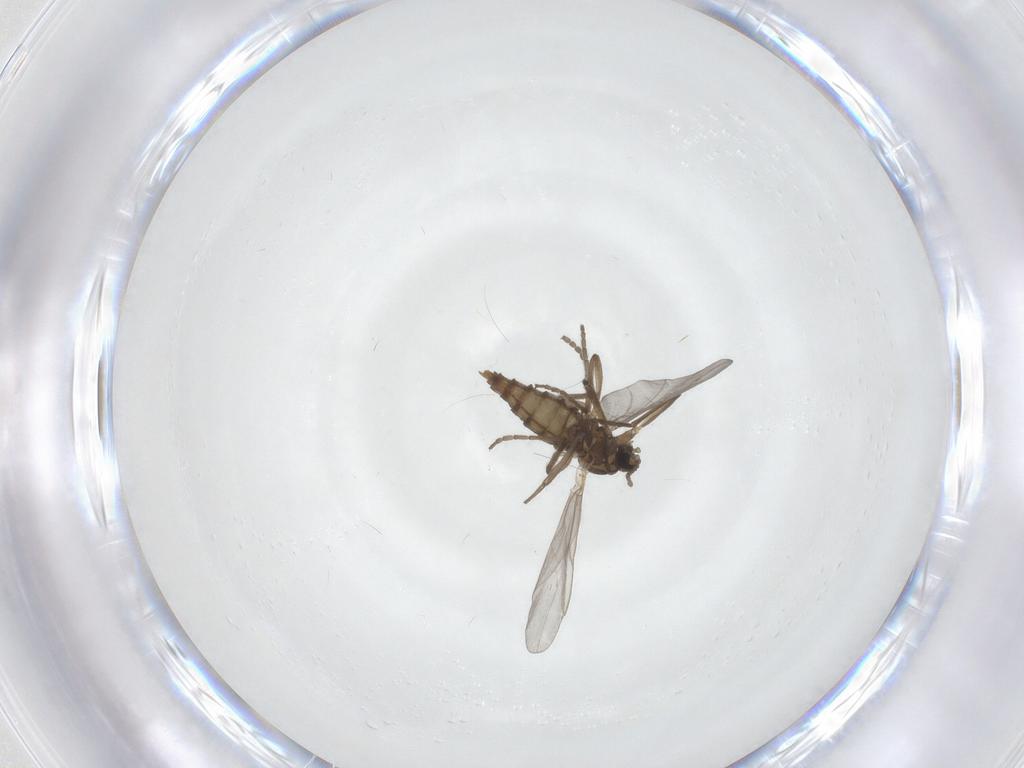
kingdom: Animalia
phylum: Arthropoda
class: Insecta
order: Diptera
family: Cecidomyiidae
